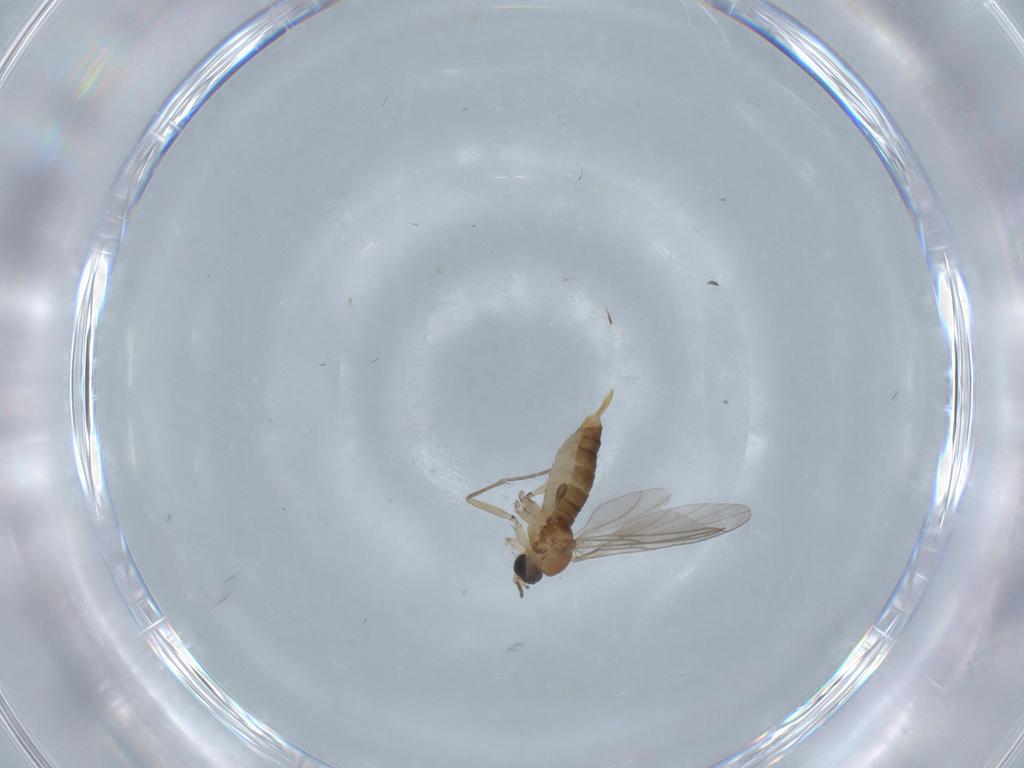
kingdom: Animalia
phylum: Arthropoda
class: Insecta
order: Diptera
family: Sciaridae
